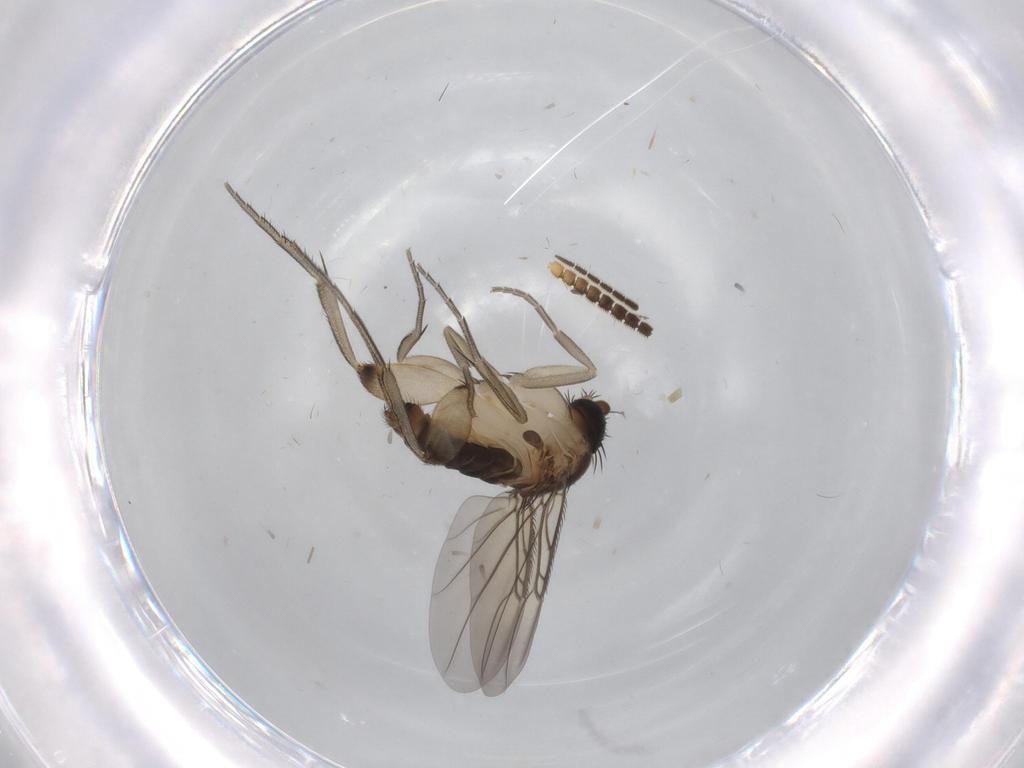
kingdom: Animalia
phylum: Arthropoda
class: Insecta
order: Diptera
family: Phoridae
